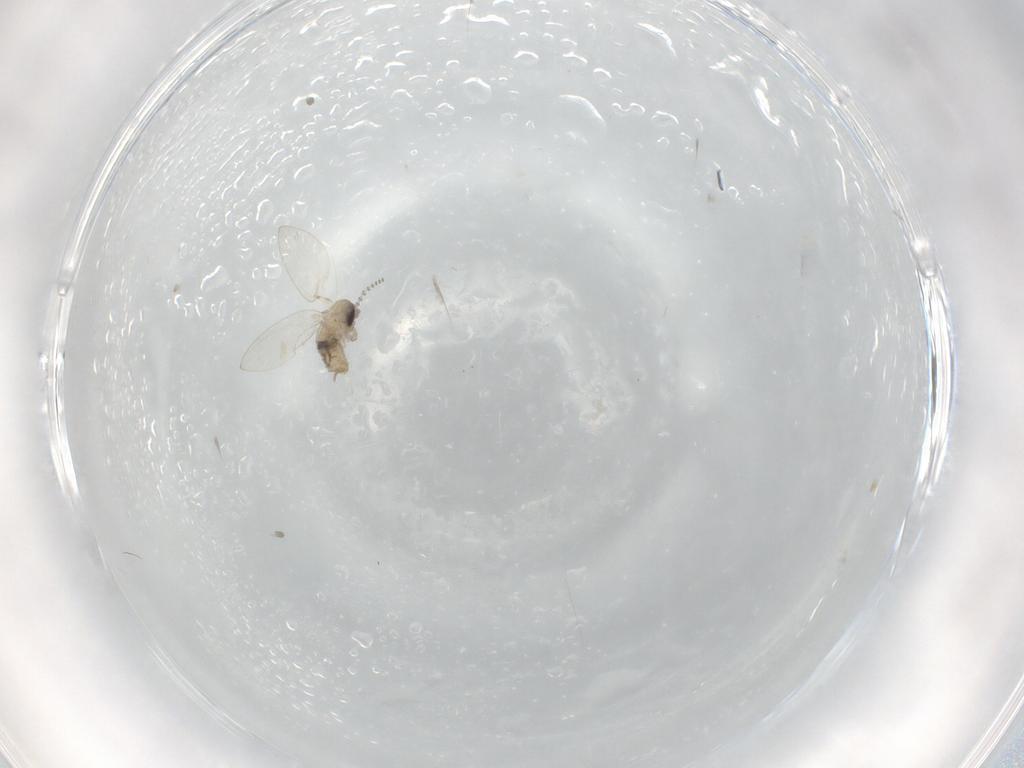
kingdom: Animalia
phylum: Arthropoda
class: Insecta
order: Diptera
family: Psychodidae
